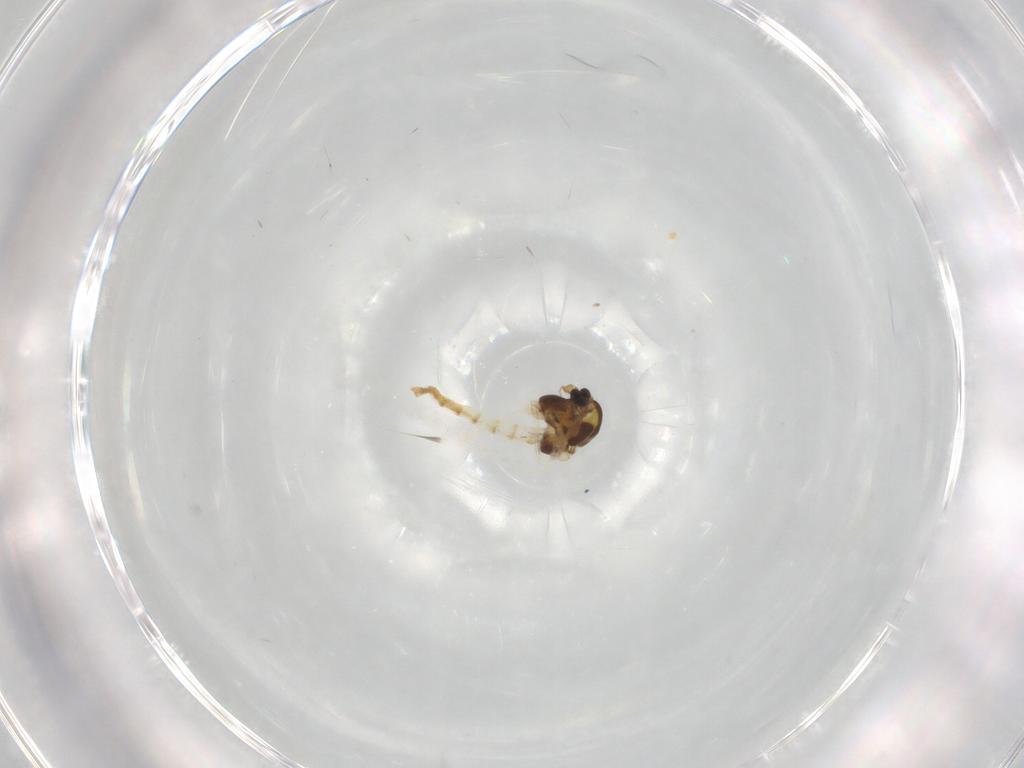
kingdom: Animalia
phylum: Arthropoda
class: Insecta
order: Diptera
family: Chironomidae
